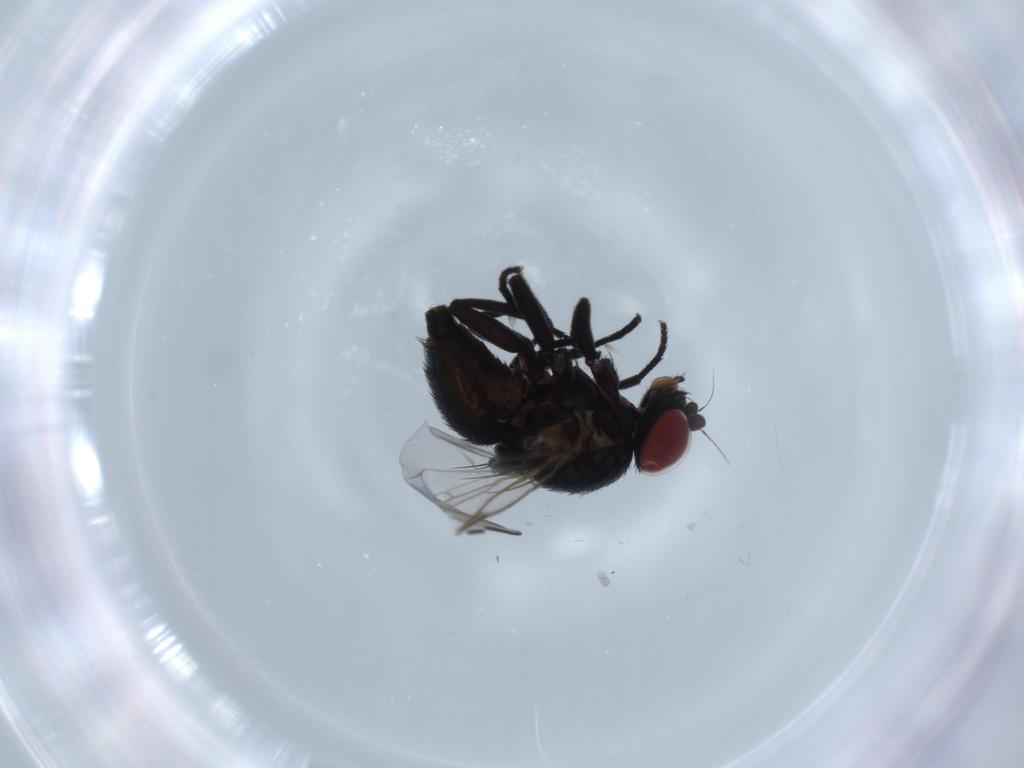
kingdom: Animalia
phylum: Arthropoda
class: Insecta
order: Diptera
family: Agromyzidae
